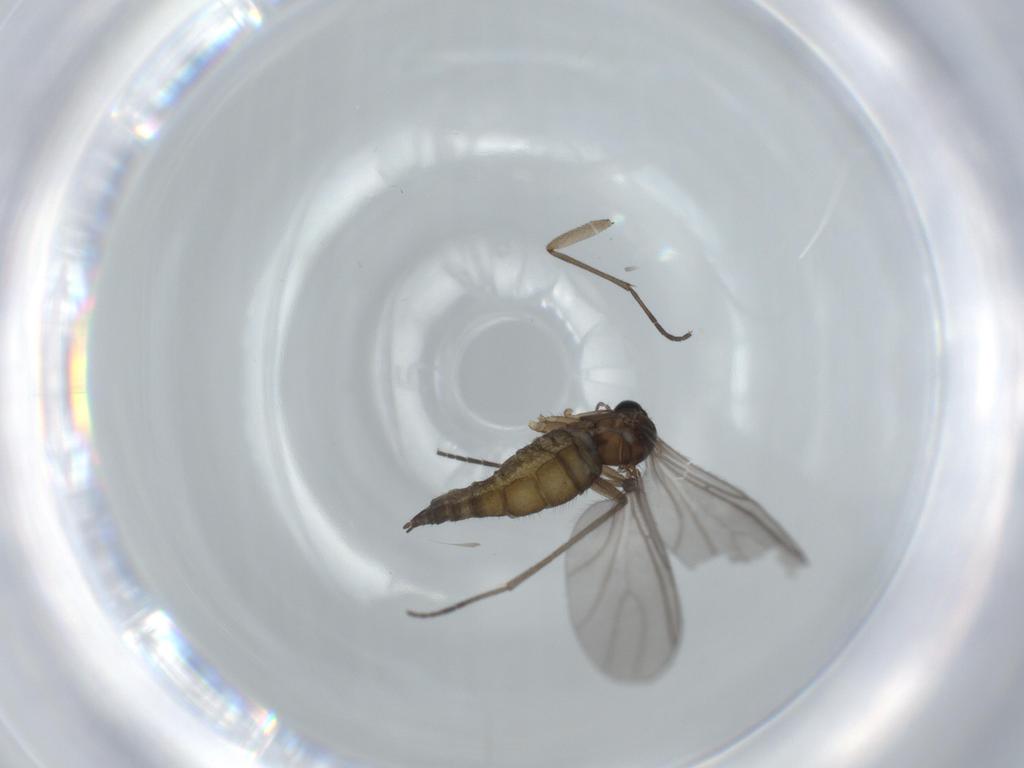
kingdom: Animalia
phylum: Arthropoda
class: Insecta
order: Diptera
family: Sciaridae
